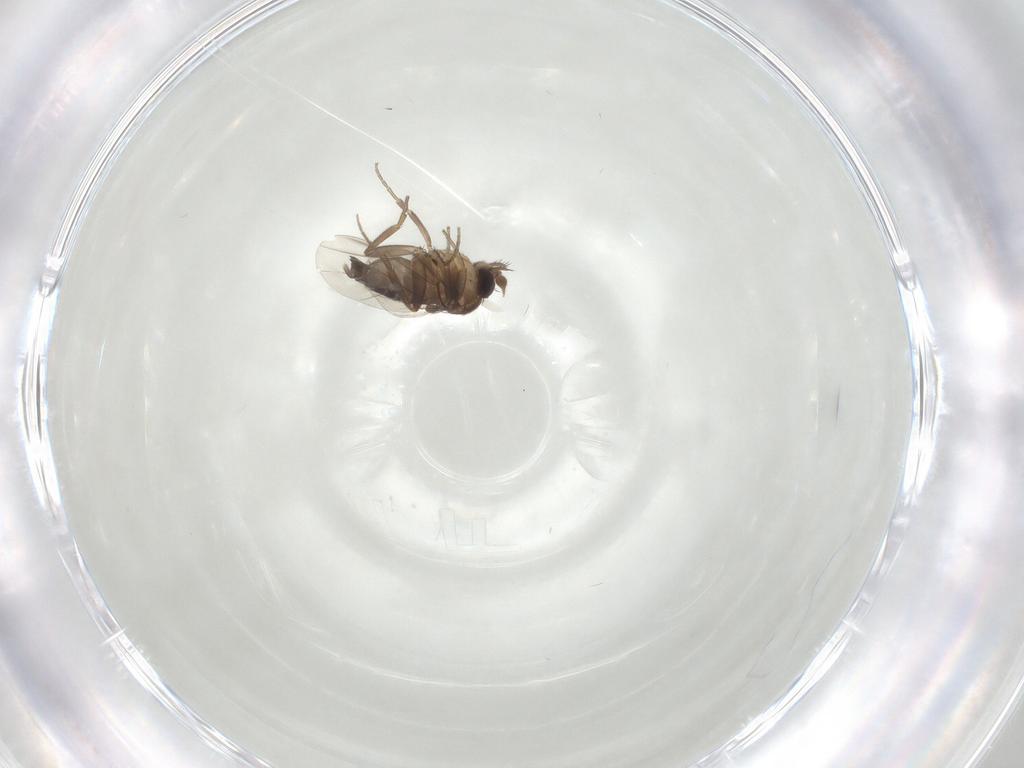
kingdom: Animalia
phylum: Arthropoda
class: Insecta
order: Diptera
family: Phoridae
